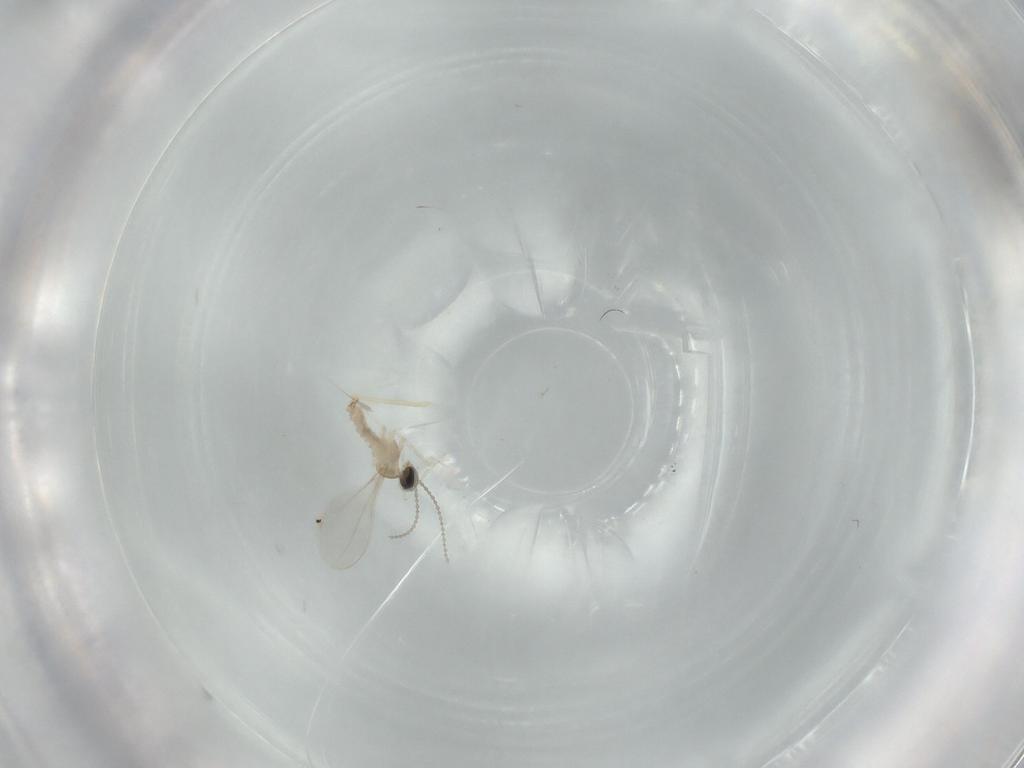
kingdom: Animalia
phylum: Arthropoda
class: Insecta
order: Diptera
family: Cecidomyiidae
